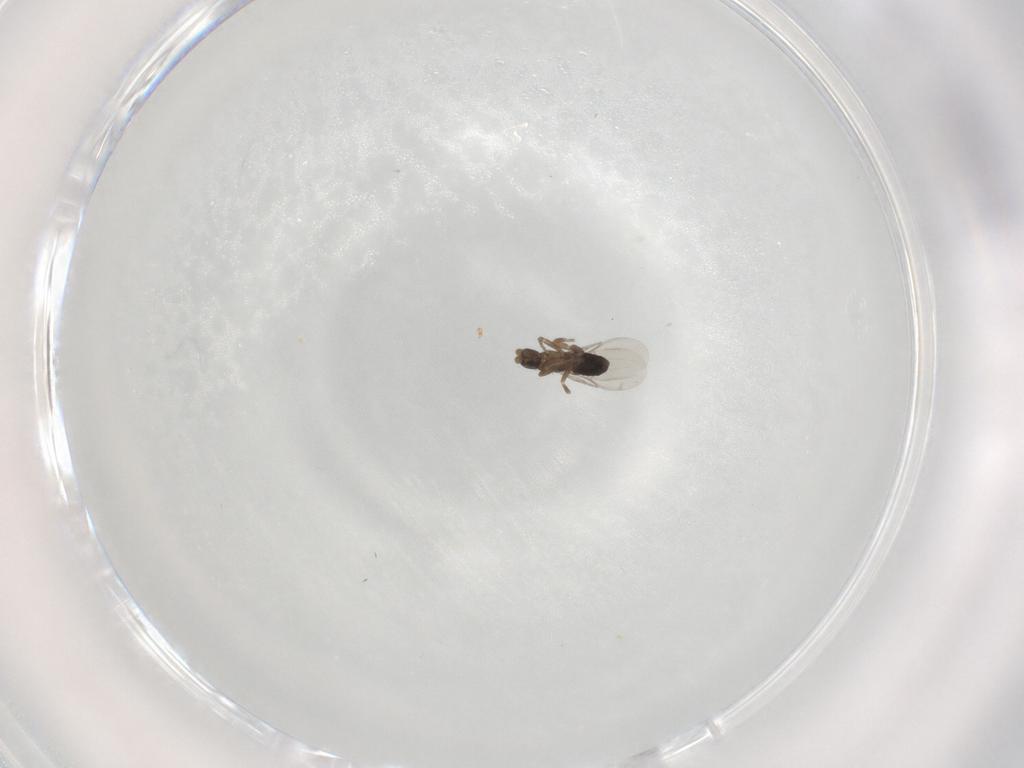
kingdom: Animalia
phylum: Arthropoda
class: Insecta
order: Diptera
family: Phoridae
